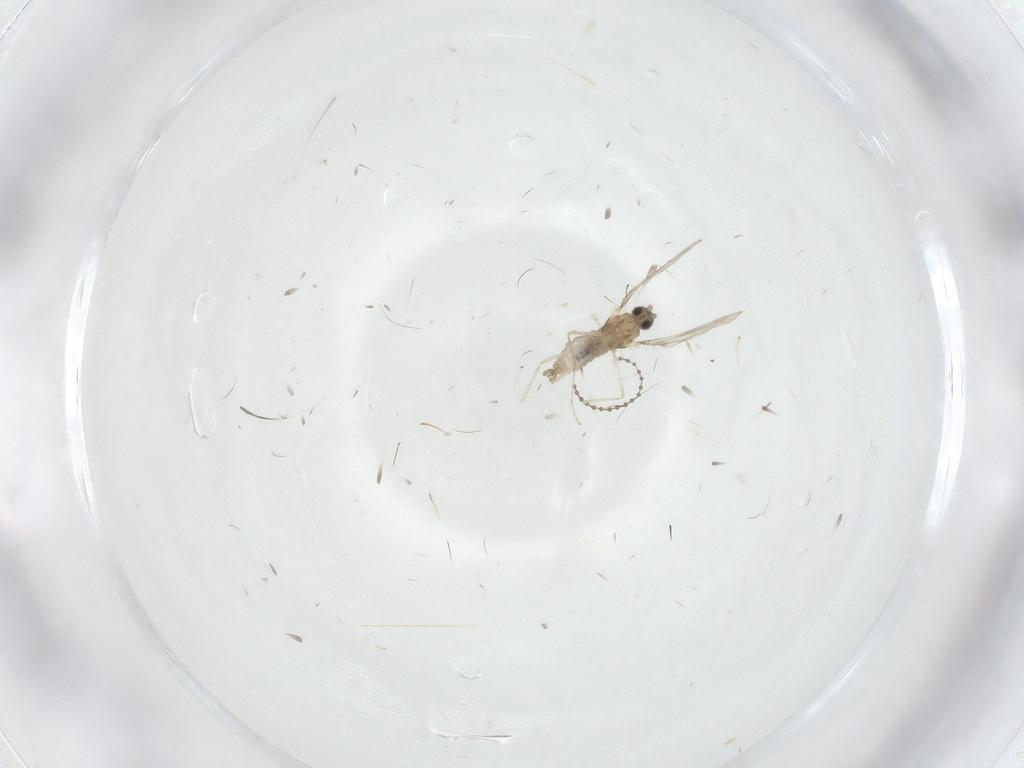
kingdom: Animalia
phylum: Arthropoda
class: Insecta
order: Diptera
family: Cecidomyiidae
